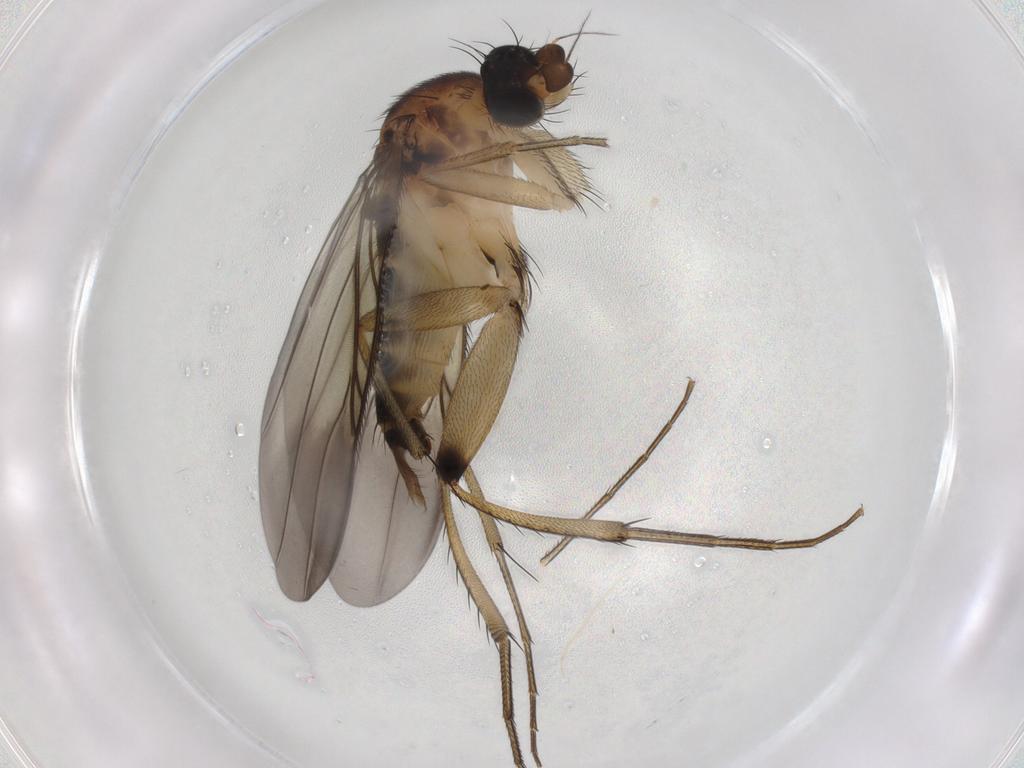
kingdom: Animalia
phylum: Arthropoda
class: Insecta
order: Diptera
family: Phoridae
